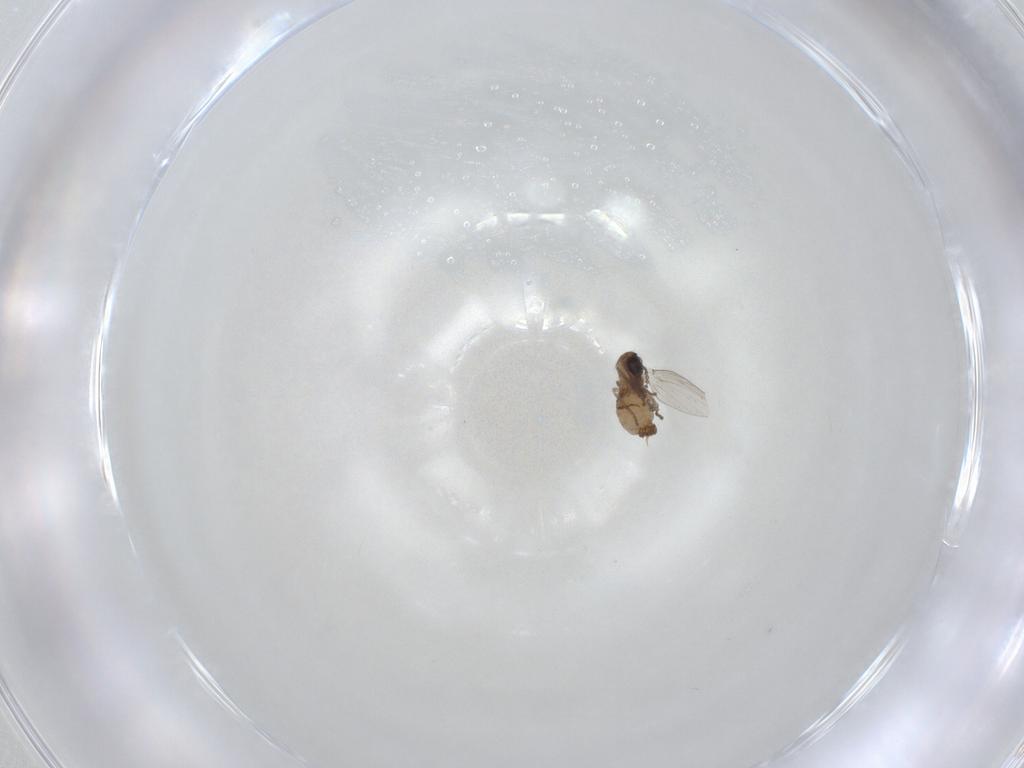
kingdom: Animalia
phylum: Arthropoda
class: Insecta
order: Diptera
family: Psychodidae
